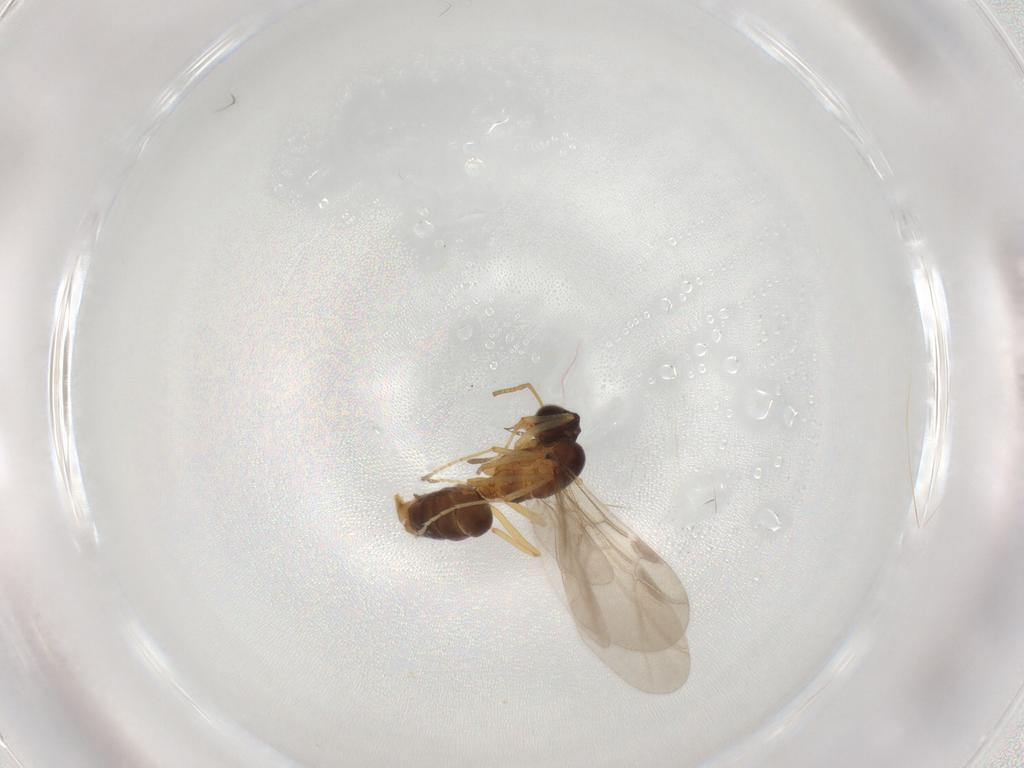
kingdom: Animalia
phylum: Arthropoda
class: Insecta
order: Hymenoptera
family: Formicidae
